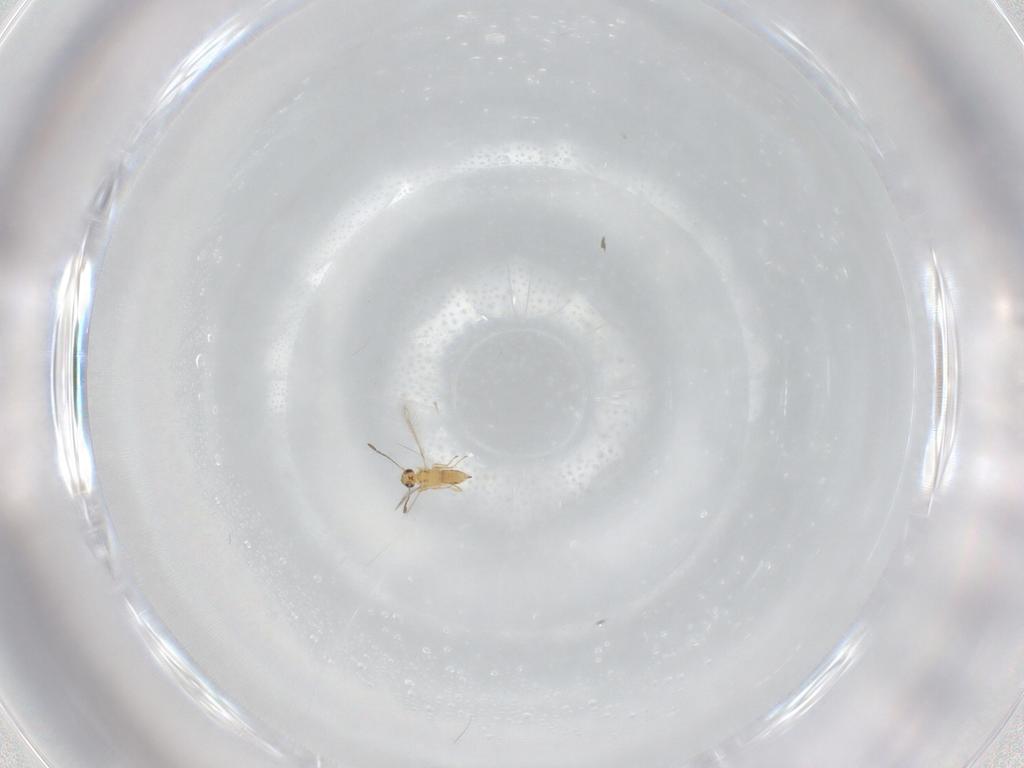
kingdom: Animalia
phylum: Arthropoda
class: Insecta
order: Hymenoptera
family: Mymaridae
